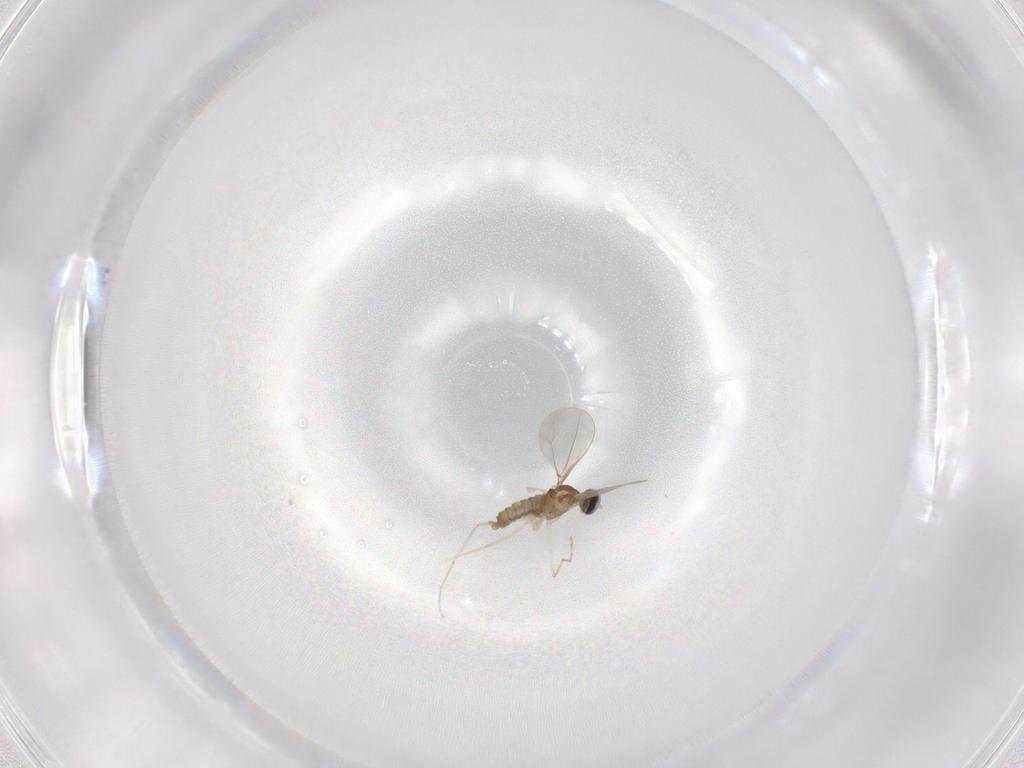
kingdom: Animalia
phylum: Arthropoda
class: Insecta
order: Diptera
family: Cecidomyiidae
